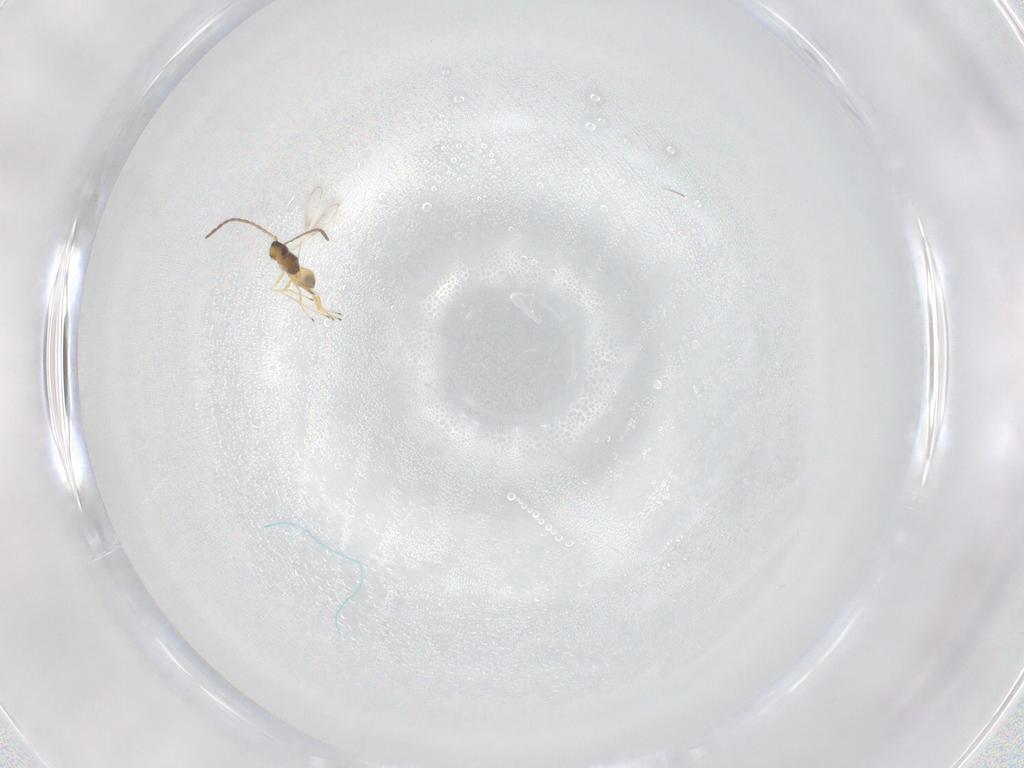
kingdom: Animalia
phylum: Arthropoda
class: Insecta
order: Hymenoptera
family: Mymaridae
